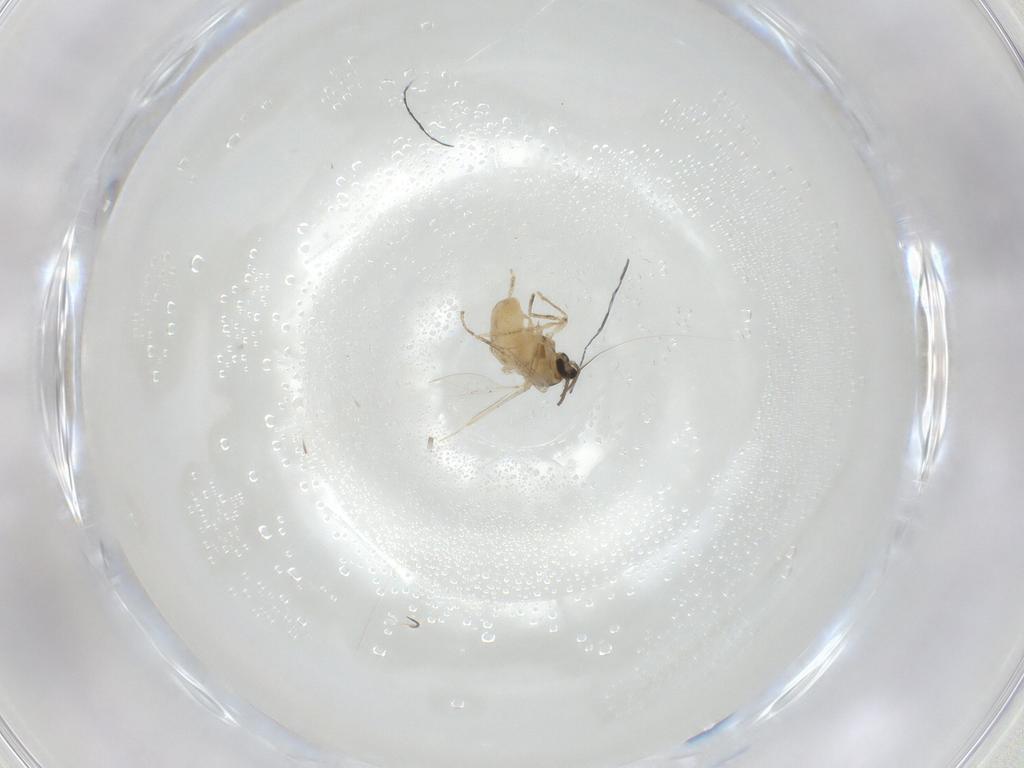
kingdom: Animalia
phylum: Arthropoda
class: Insecta
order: Diptera
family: Cecidomyiidae
